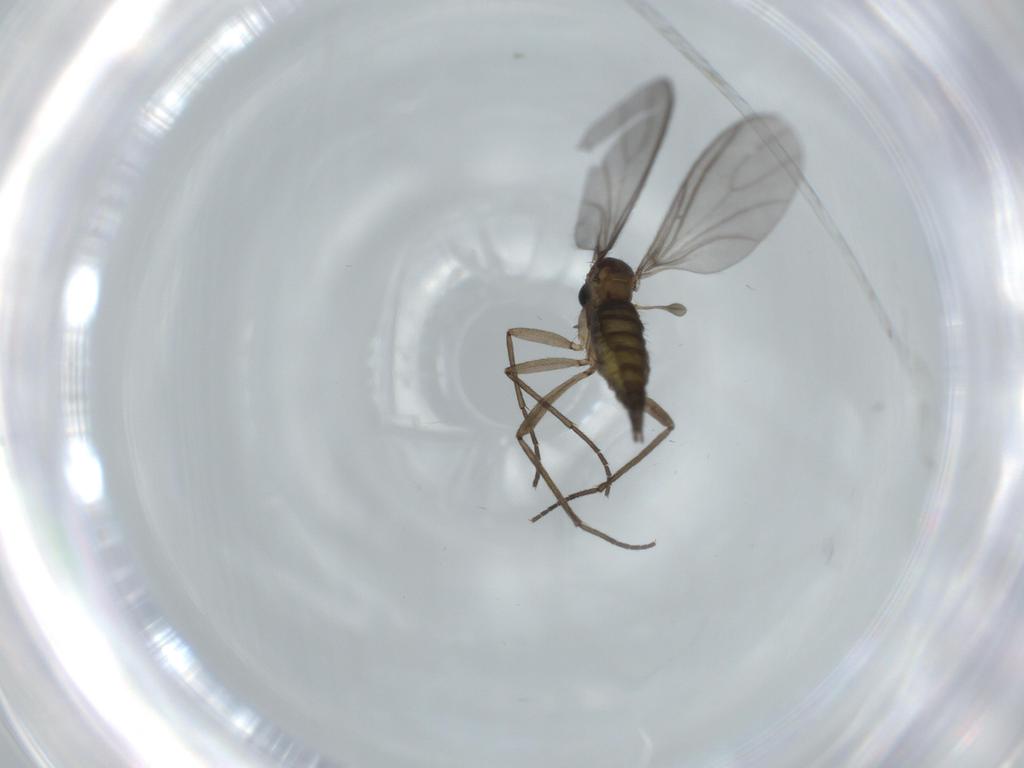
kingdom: Animalia
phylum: Arthropoda
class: Insecta
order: Diptera
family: Sciaridae
